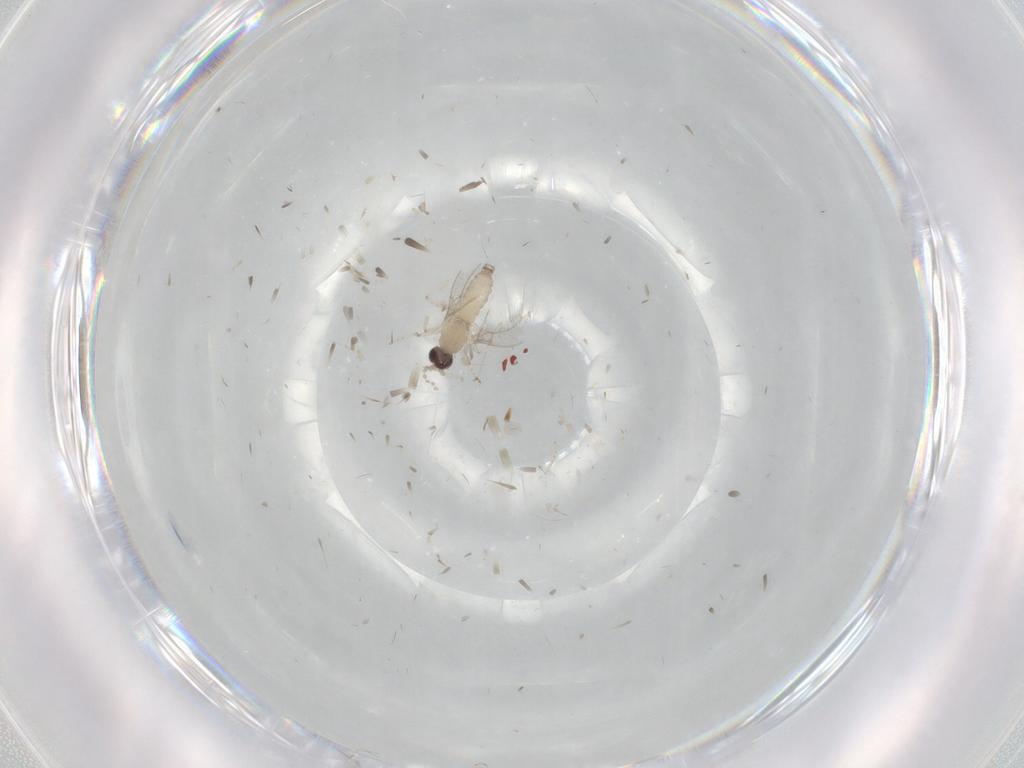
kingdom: Animalia
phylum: Arthropoda
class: Insecta
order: Diptera
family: Cecidomyiidae
